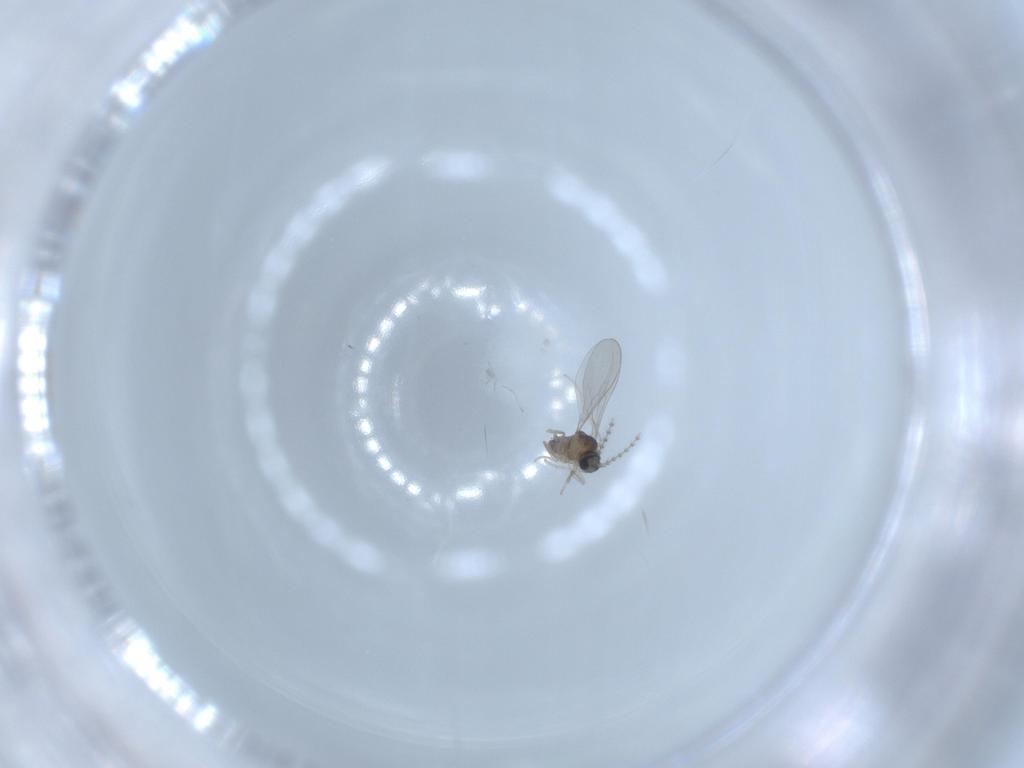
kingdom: Animalia
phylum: Arthropoda
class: Insecta
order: Diptera
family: Cecidomyiidae
